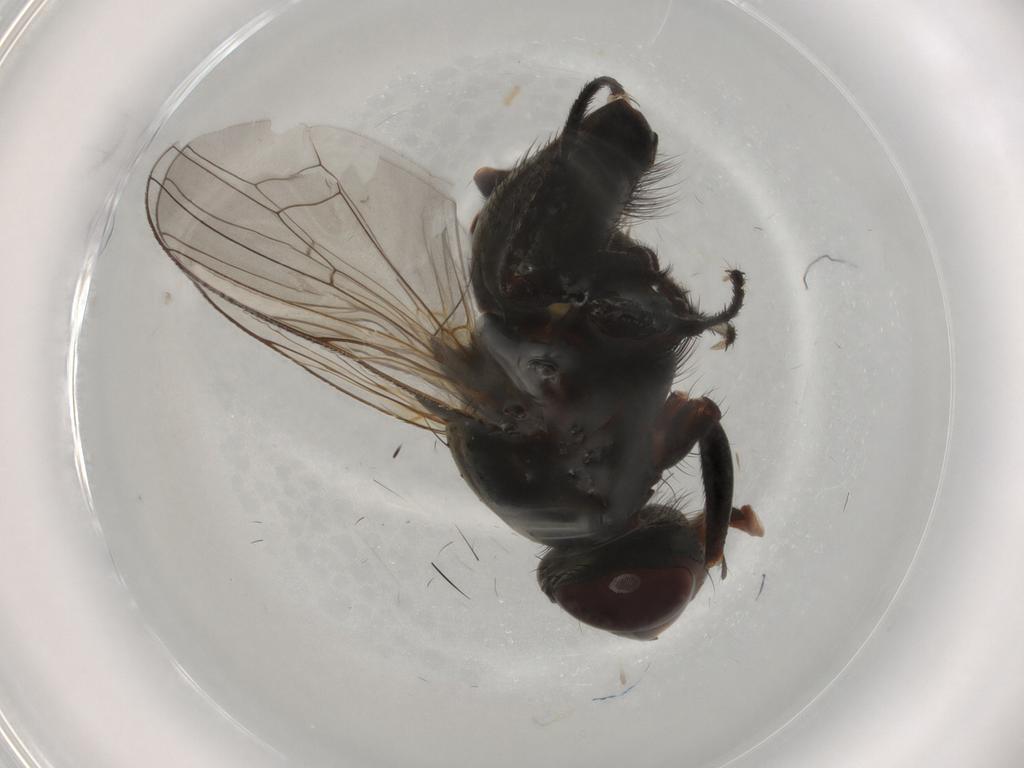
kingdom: Animalia
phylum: Arthropoda
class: Insecta
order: Diptera
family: Anthomyiidae
